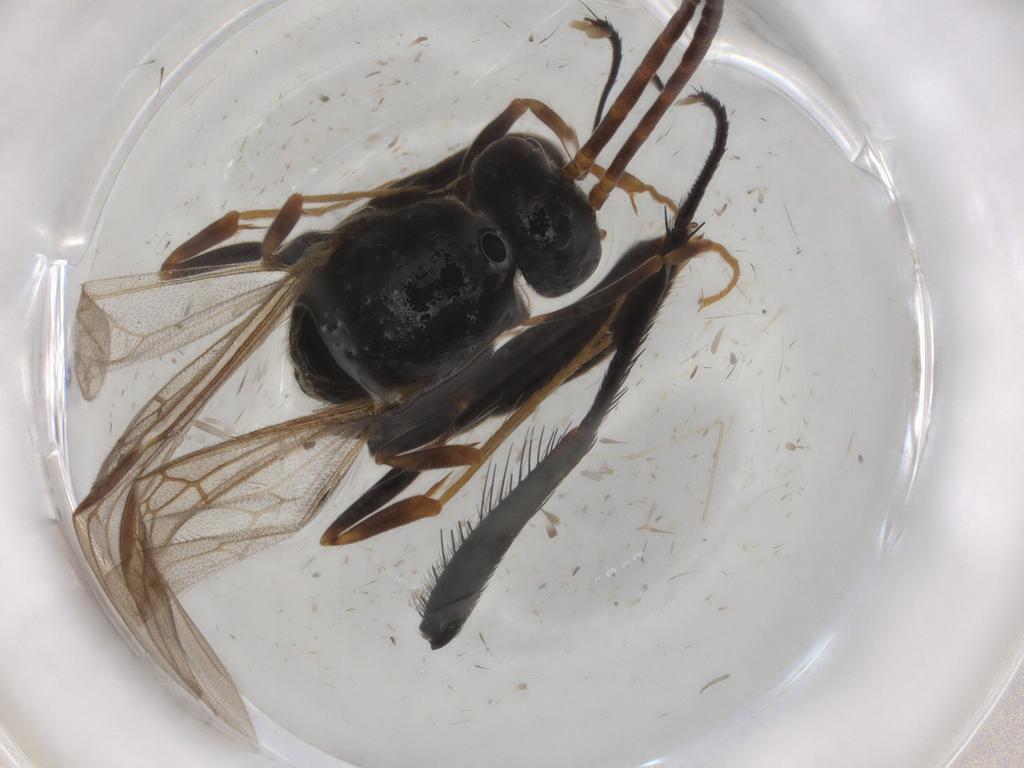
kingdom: Animalia
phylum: Arthropoda
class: Insecta
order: Hymenoptera
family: Formicidae
